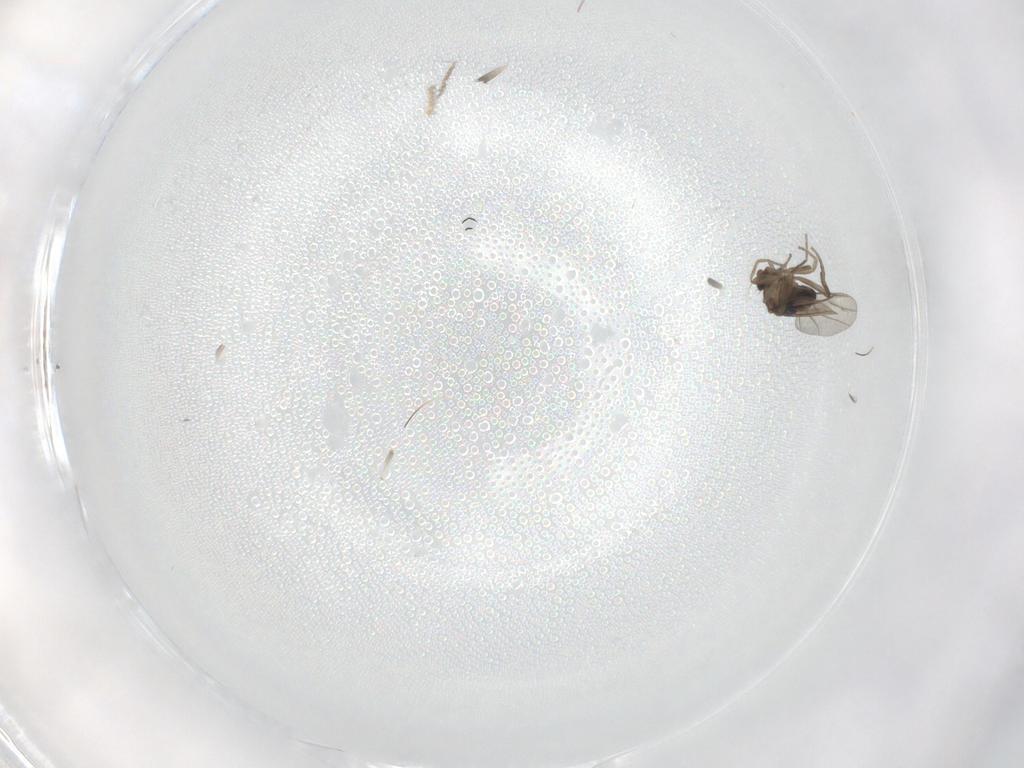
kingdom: Animalia
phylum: Arthropoda
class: Insecta
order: Diptera
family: Phoridae
